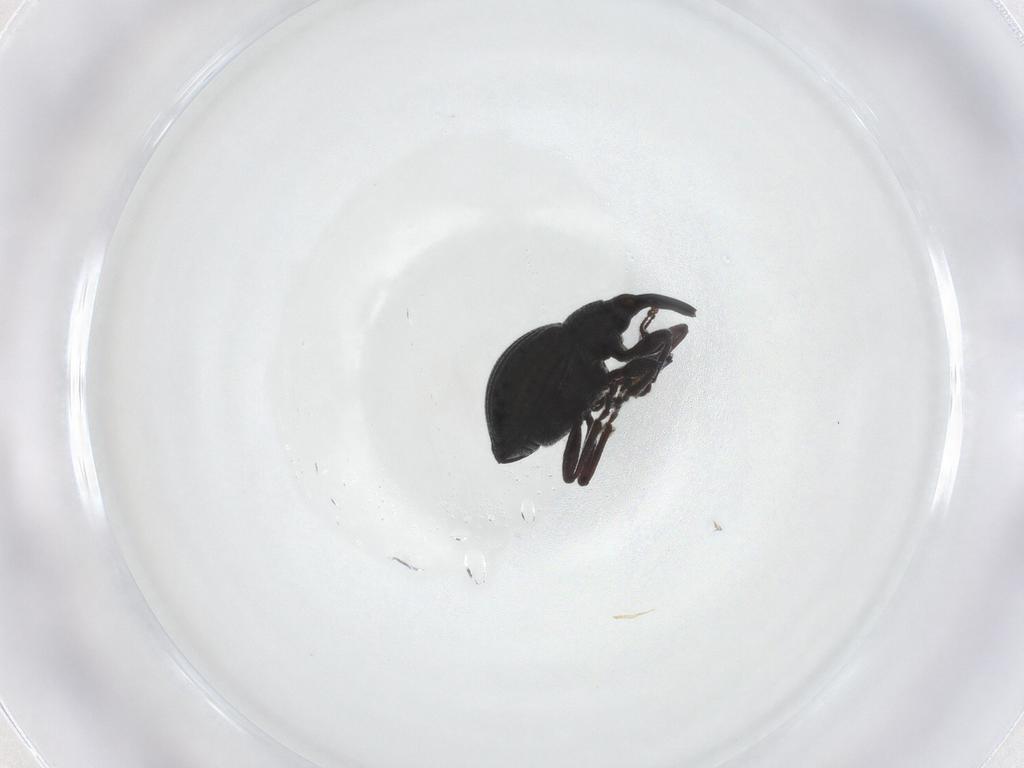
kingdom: Animalia
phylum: Arthropoda
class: Insecta
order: Coleoptera
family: Brentidae
